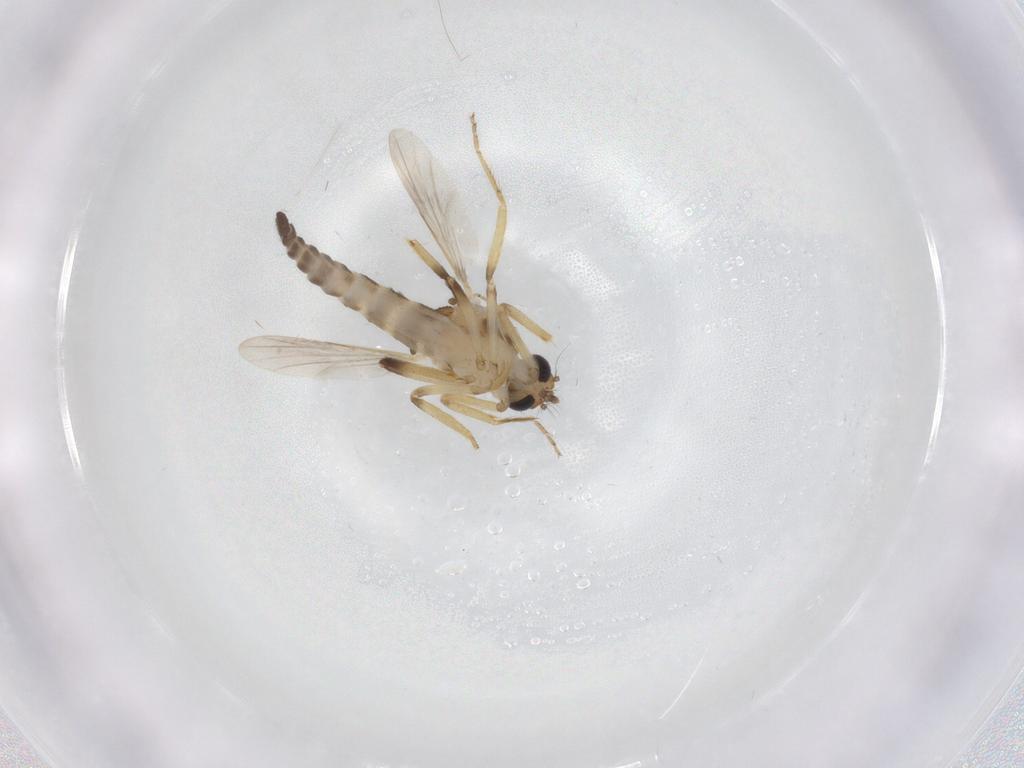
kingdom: Animalia
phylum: Arthropoda
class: Insecta
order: Diptera
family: Ceratopogonidae
